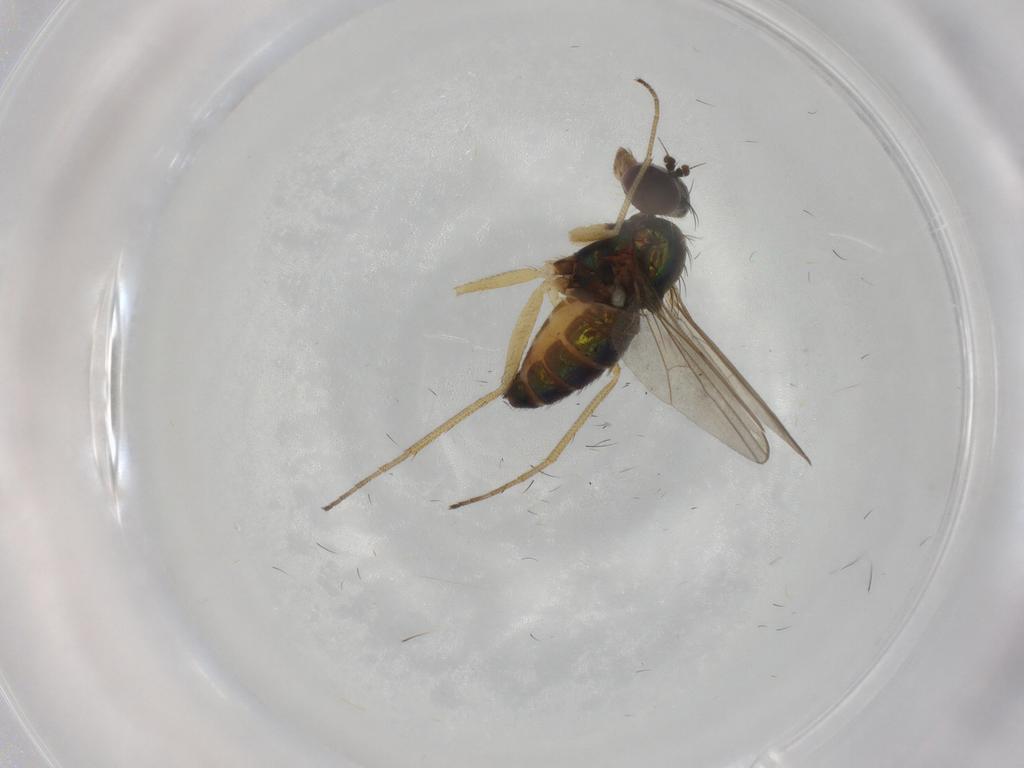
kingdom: Animalia
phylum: Arthropoda
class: Insecta
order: Diptera
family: Dolichopodidae
